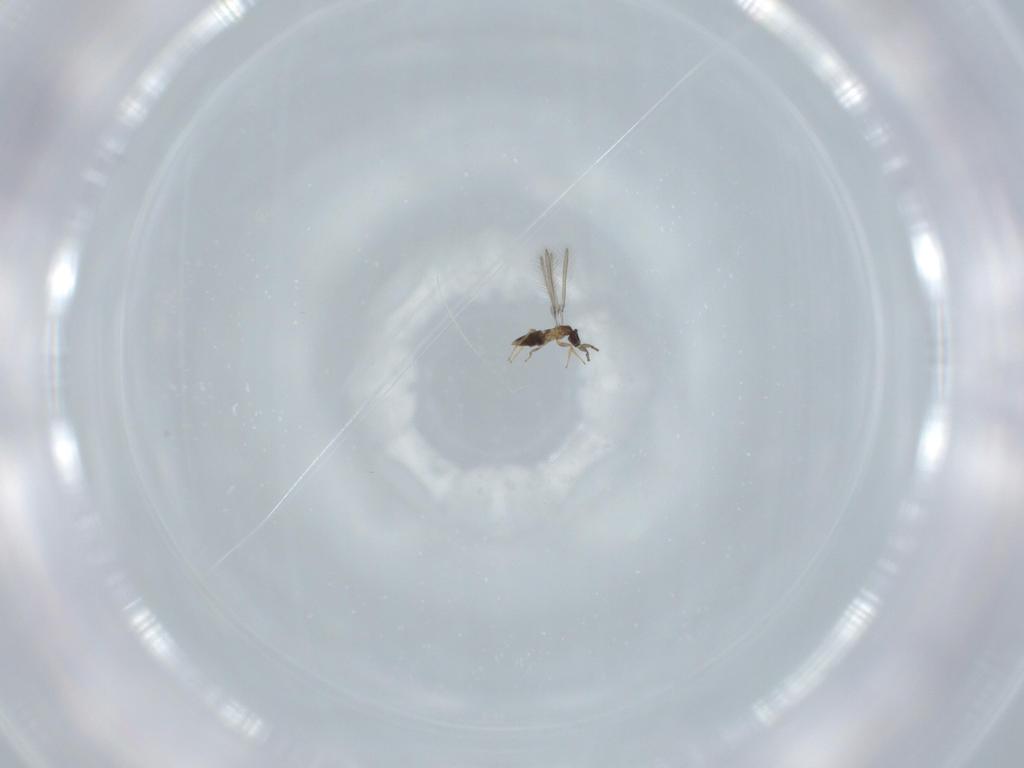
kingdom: Animalia
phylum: Arthropoda
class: Insecta
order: Hymenoptera
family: Mymaridae
